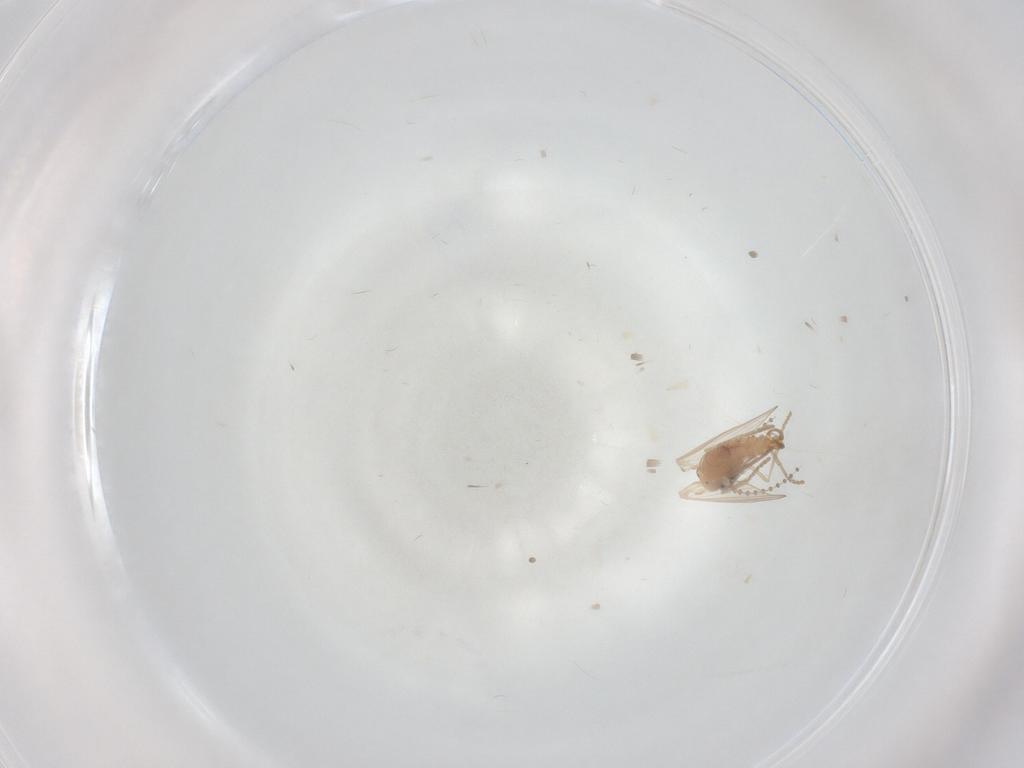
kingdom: Animalia
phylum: Arthropoda
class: Insecta
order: Diptera
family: Psychodidae
